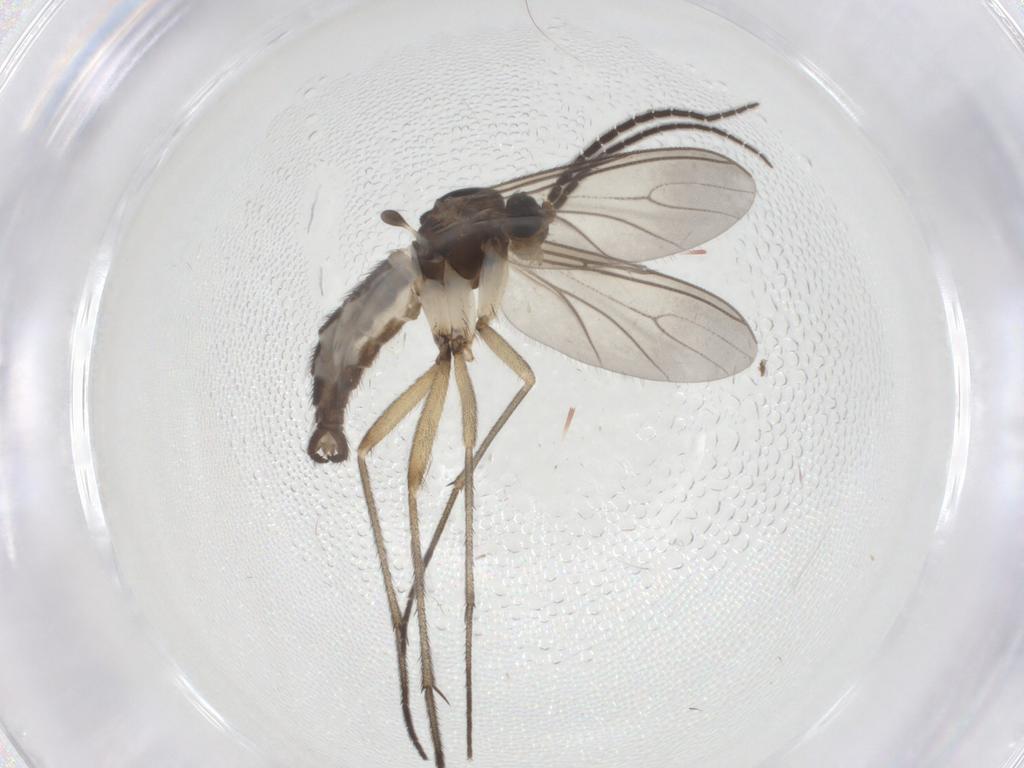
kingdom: Animalia
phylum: Arthropoda
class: Insecta
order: Diptera
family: Sciaridae
